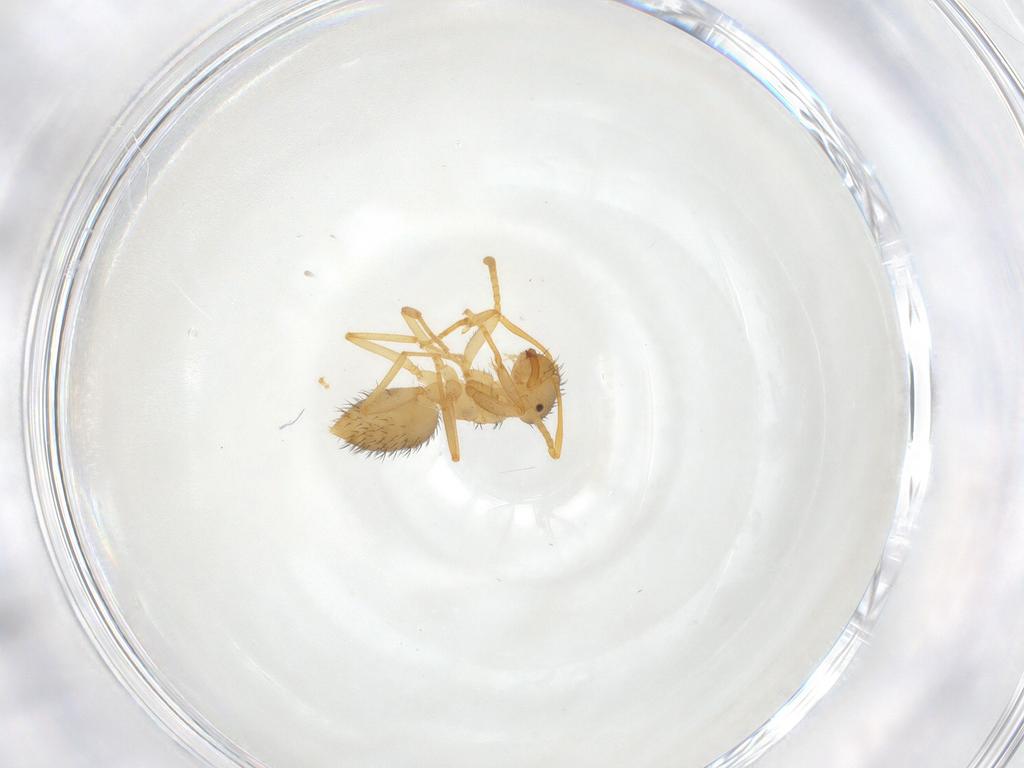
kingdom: Animalia
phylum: Arthropoda
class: Insecta
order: Hymenoptera
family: Formicidae
